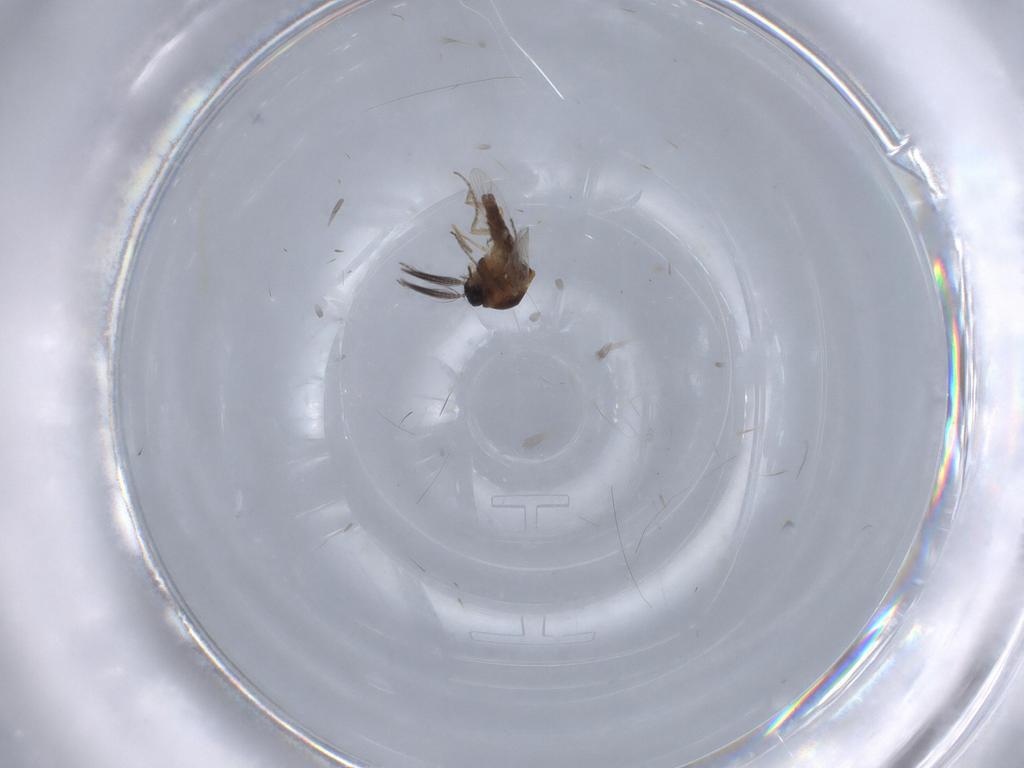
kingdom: Animalia
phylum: Arthropoda
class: Insecta
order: Diptera
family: Ceratopogonidae
